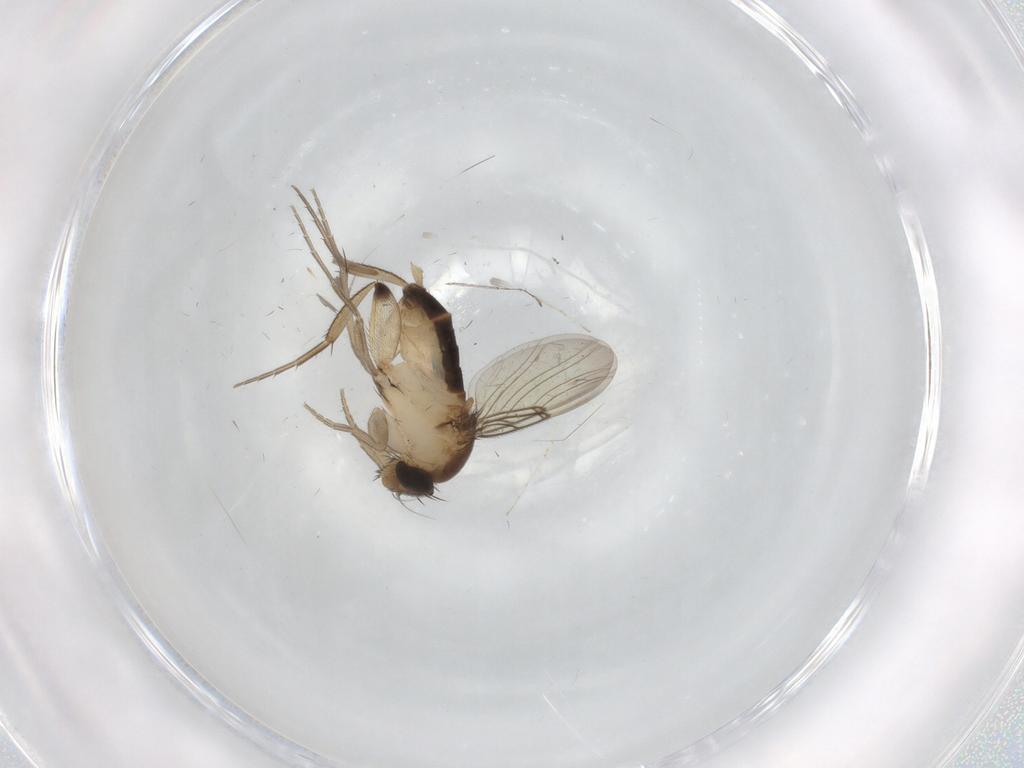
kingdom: Animalia
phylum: Arthropoda
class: Insecta
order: Diptera
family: Cecidomyiidae
